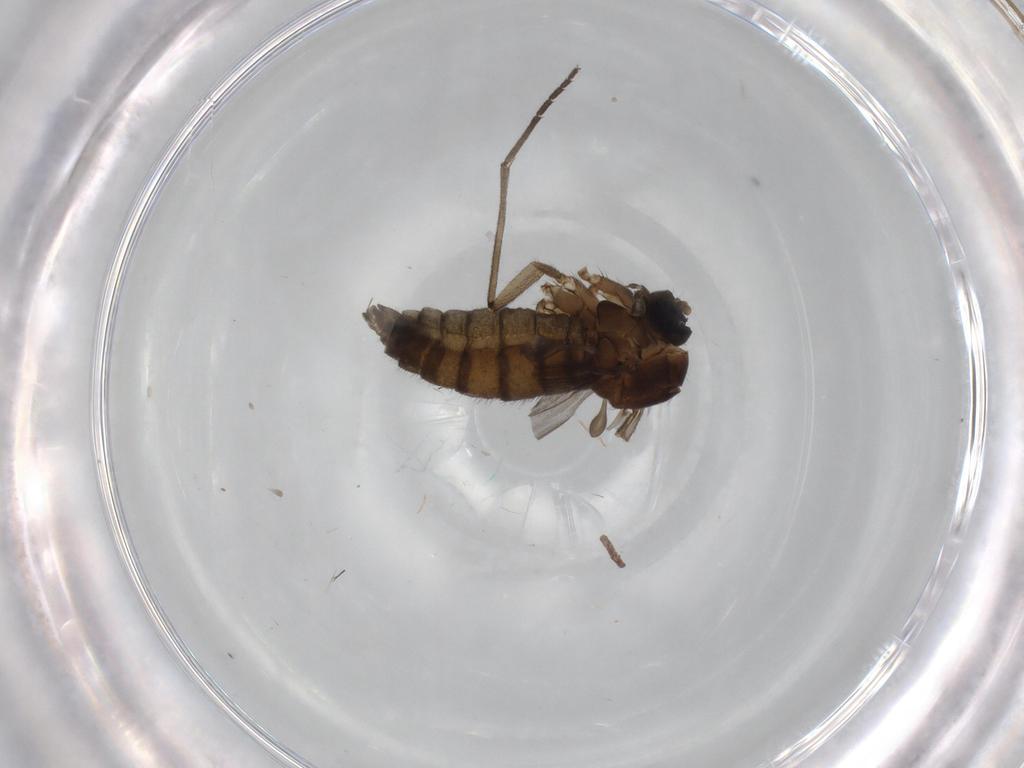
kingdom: Animalia
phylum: Arthropoda
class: Insecta
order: Diptera
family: Sciaridae
